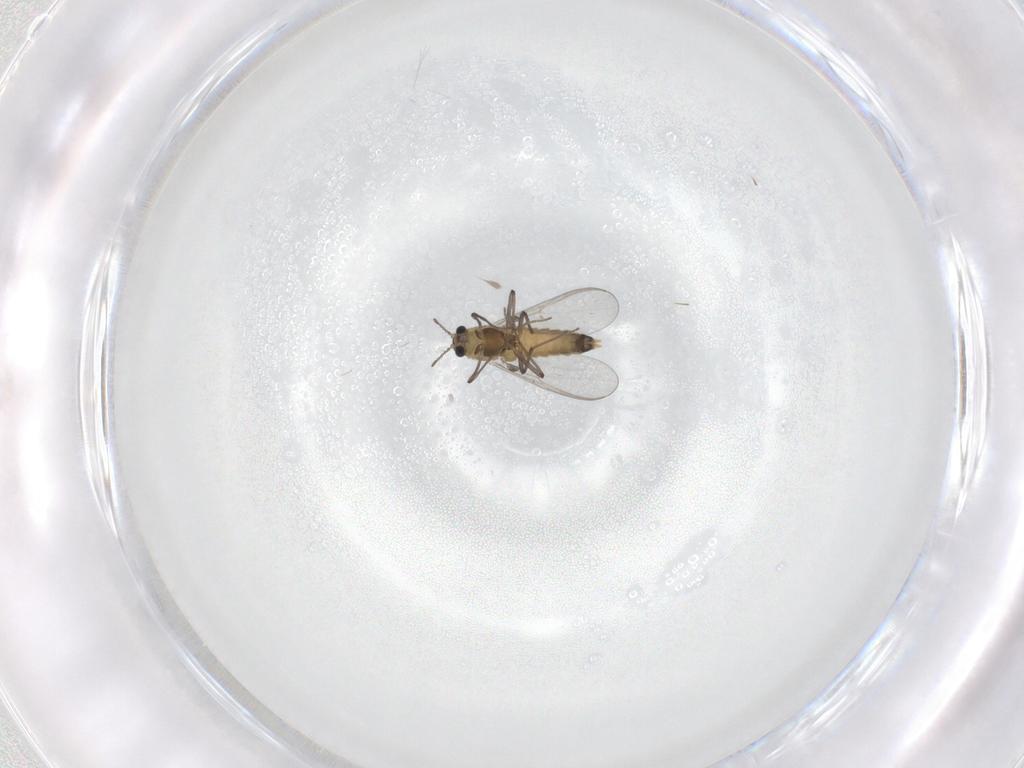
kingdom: Animalia
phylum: Arthropoda
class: Insecta
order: Diptera
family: Chironomidae
